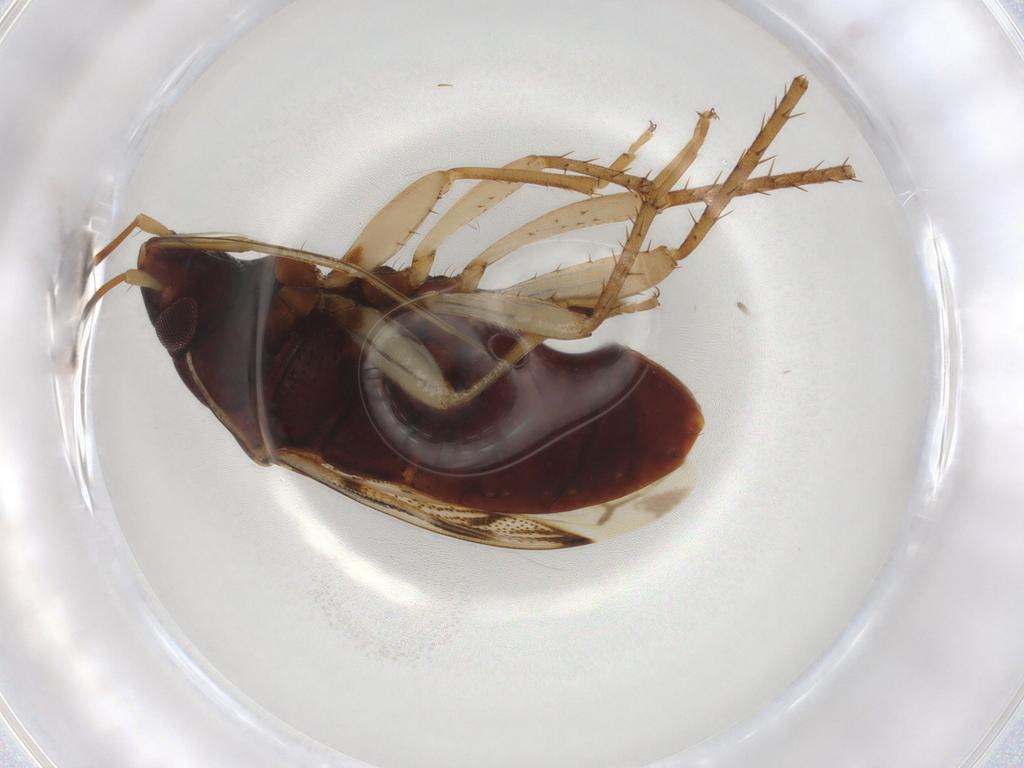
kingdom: Animalia
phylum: Arthropoda
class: Insecta
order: Hemiptera
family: Rhyparochromidae
